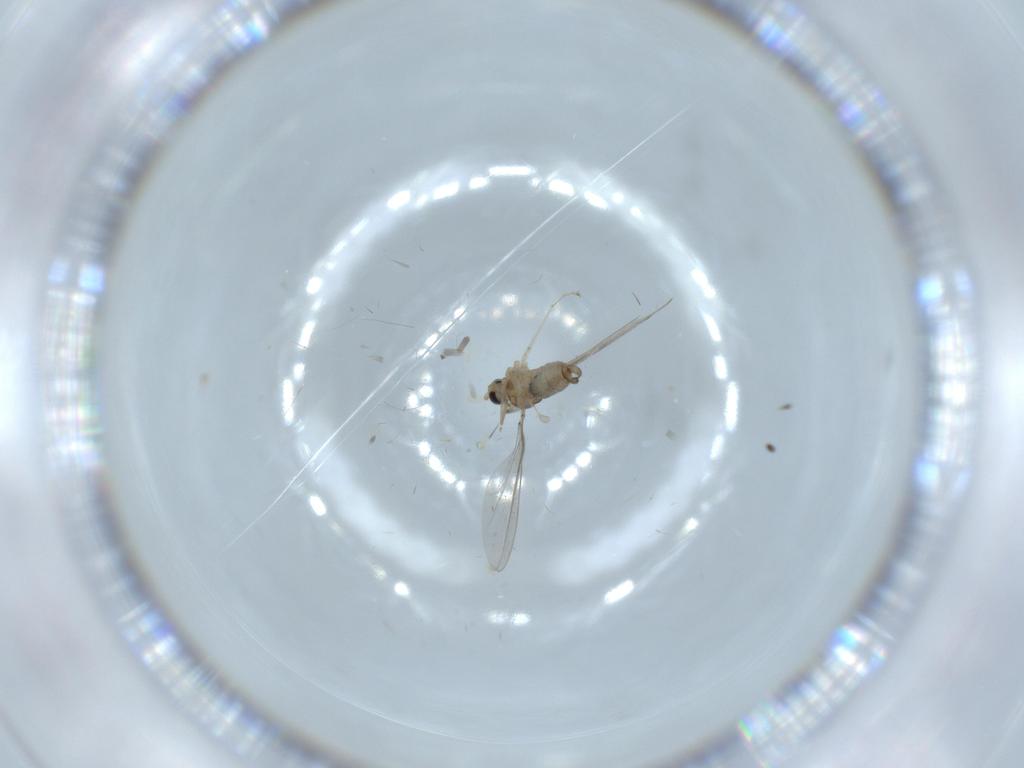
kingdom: Animalia
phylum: Arthropoda
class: Insecta
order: Diptera
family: Cecidomyiidae
